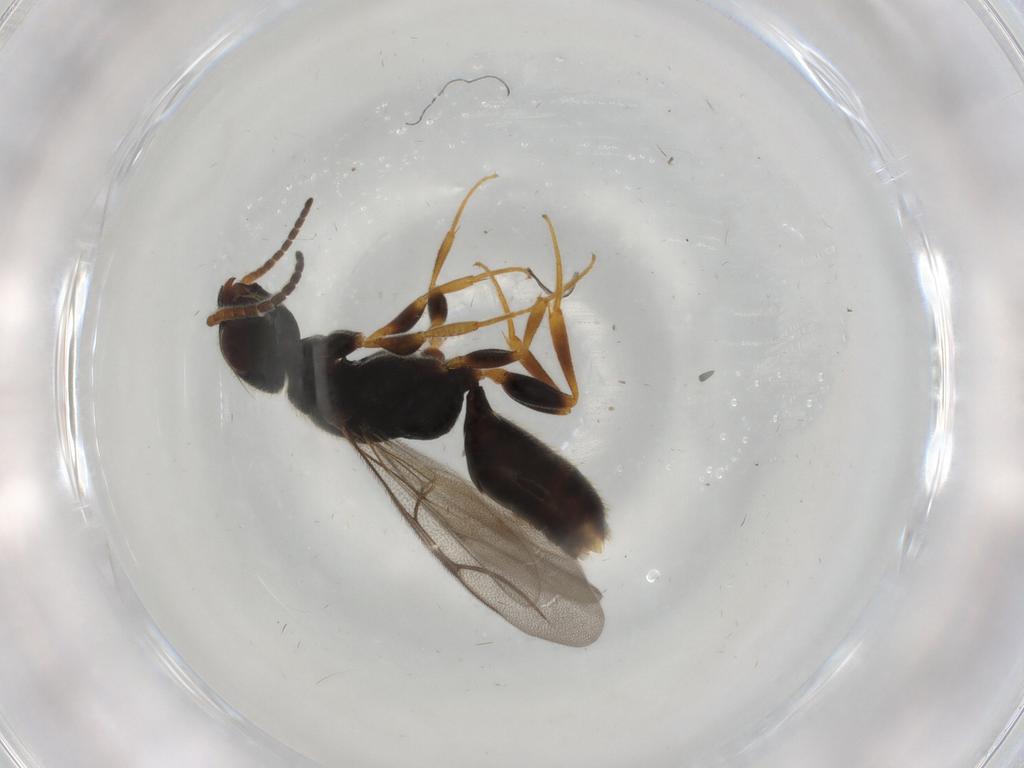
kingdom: Animalia
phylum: Arthropoda
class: Insecta
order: Hymenoptera
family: Bethylidae
